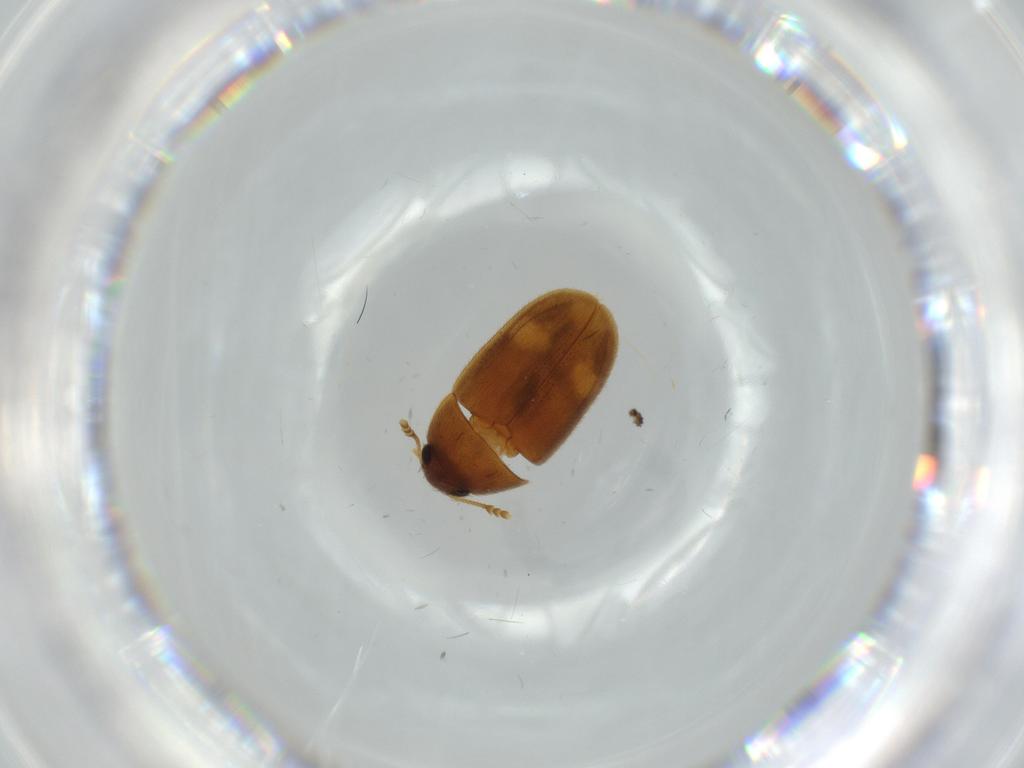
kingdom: Animalia
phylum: Arthropoda
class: Insecta
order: Coleoptera
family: Mycetophagidae
